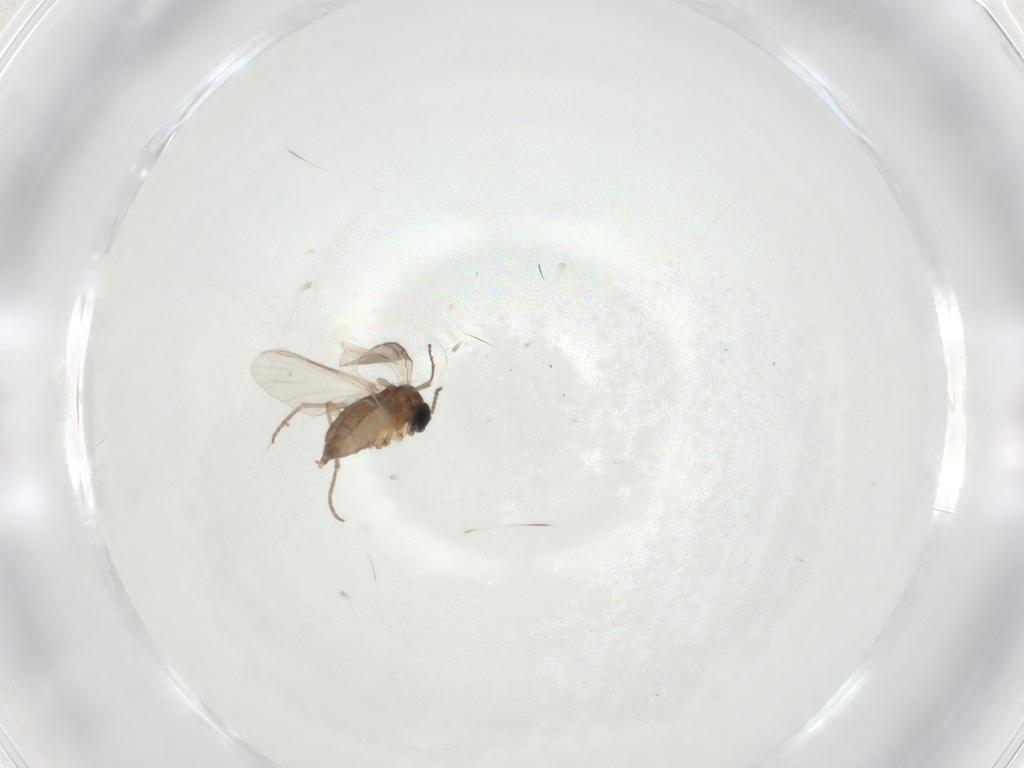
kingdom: Animalia
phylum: Arthropoda
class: Insecta
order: Diptera
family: Sciaridae
